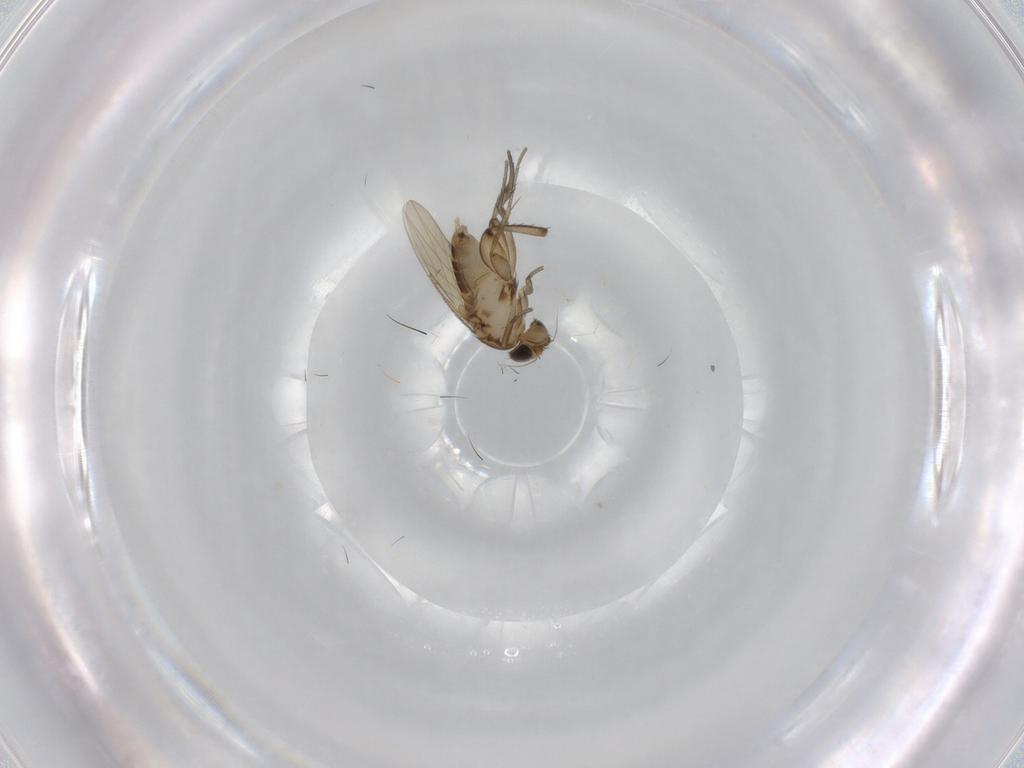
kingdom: Animalia
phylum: Arthropoda
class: Insecta
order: Diptera
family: Phoridae
